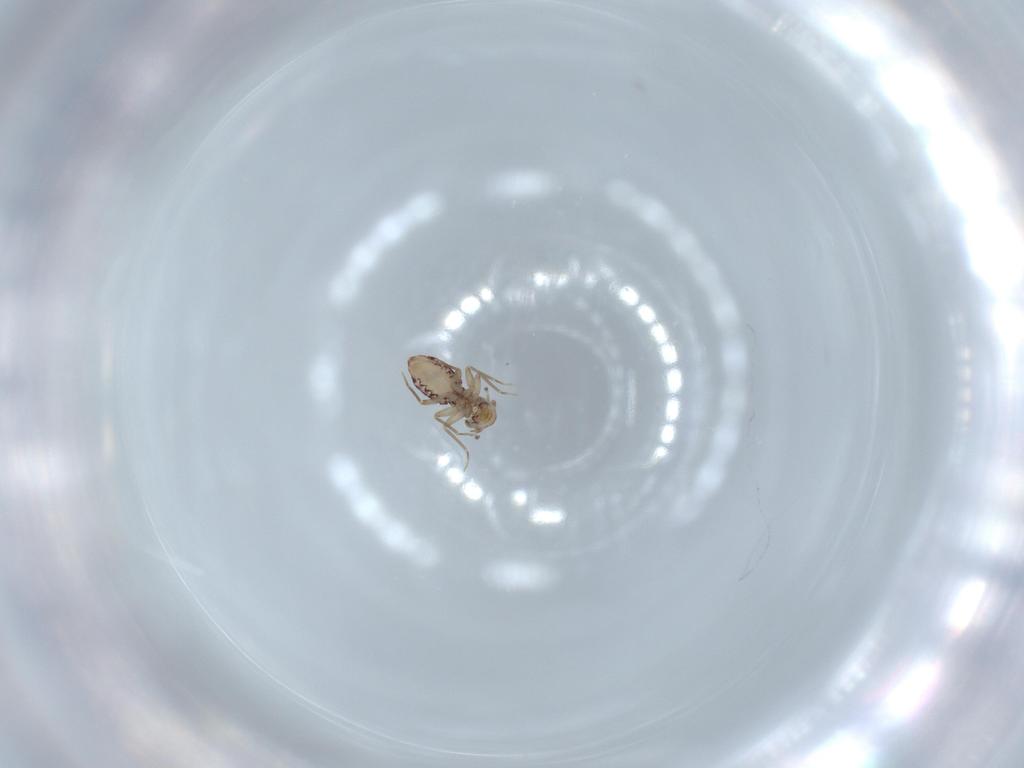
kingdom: Animalia
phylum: Arthropoda
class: Insecta
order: Psocodea
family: Lepidopsocidae
